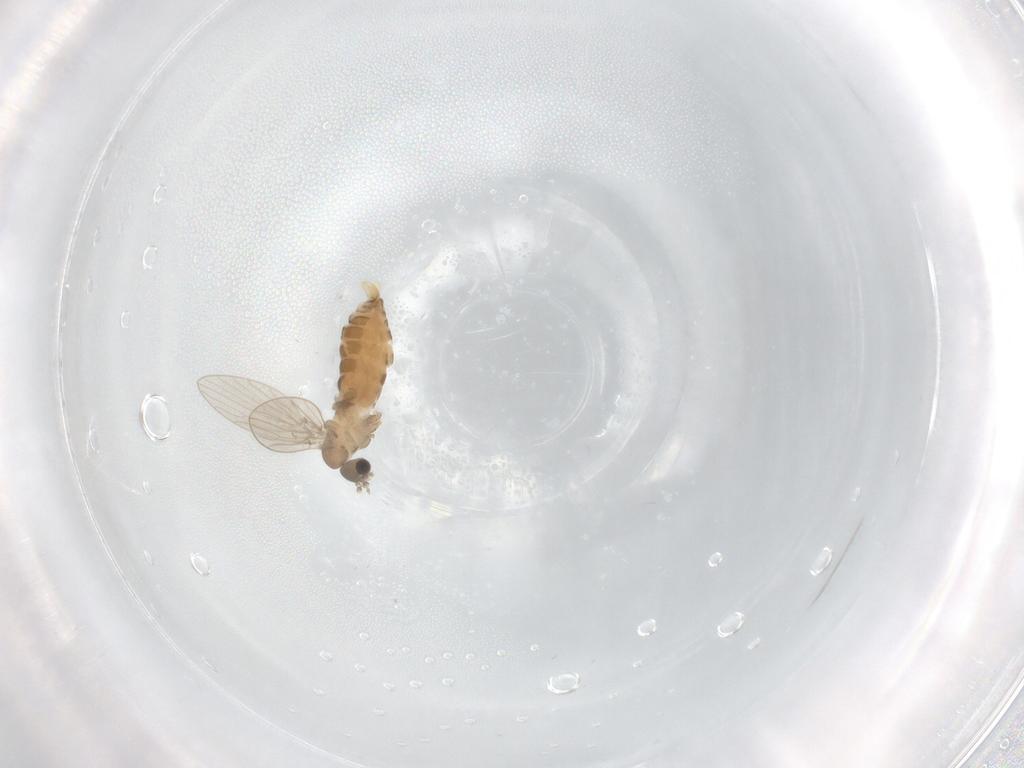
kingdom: Animalia
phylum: Arthropoda
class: Insecta
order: Diptera
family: Psychodidae
